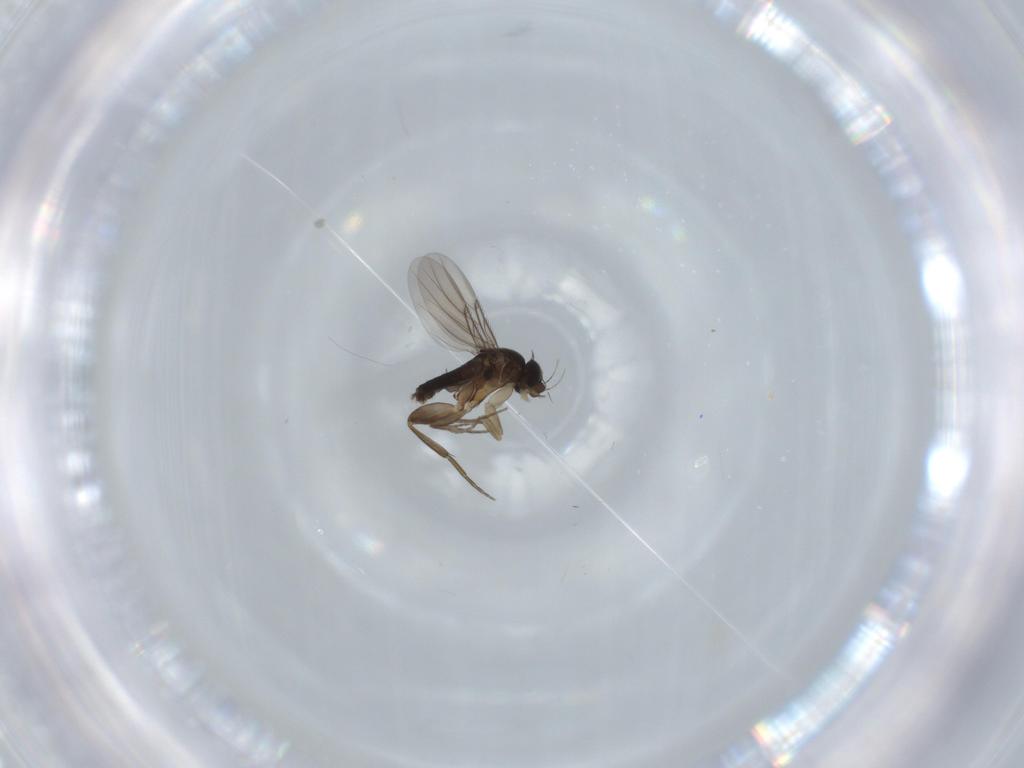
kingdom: Animalia
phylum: Arthropoda
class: Insecta
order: Diptera
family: Phoridae
